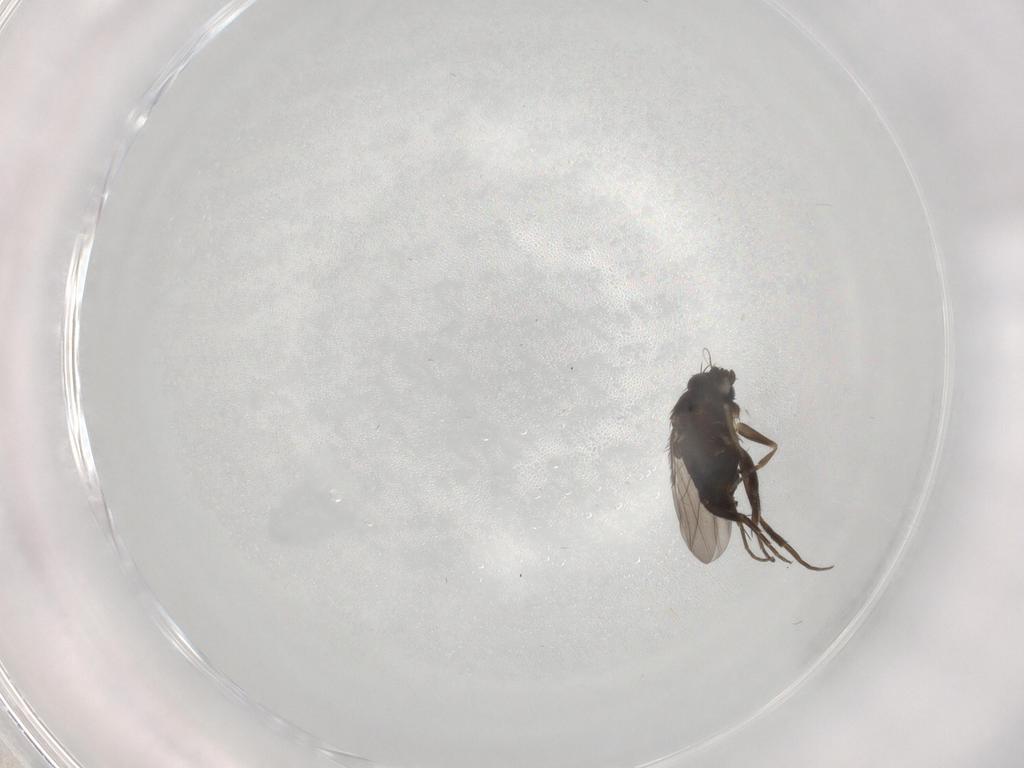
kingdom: Animalia
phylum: Arthropoda
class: Insecta
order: Diptera
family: Phoridae
